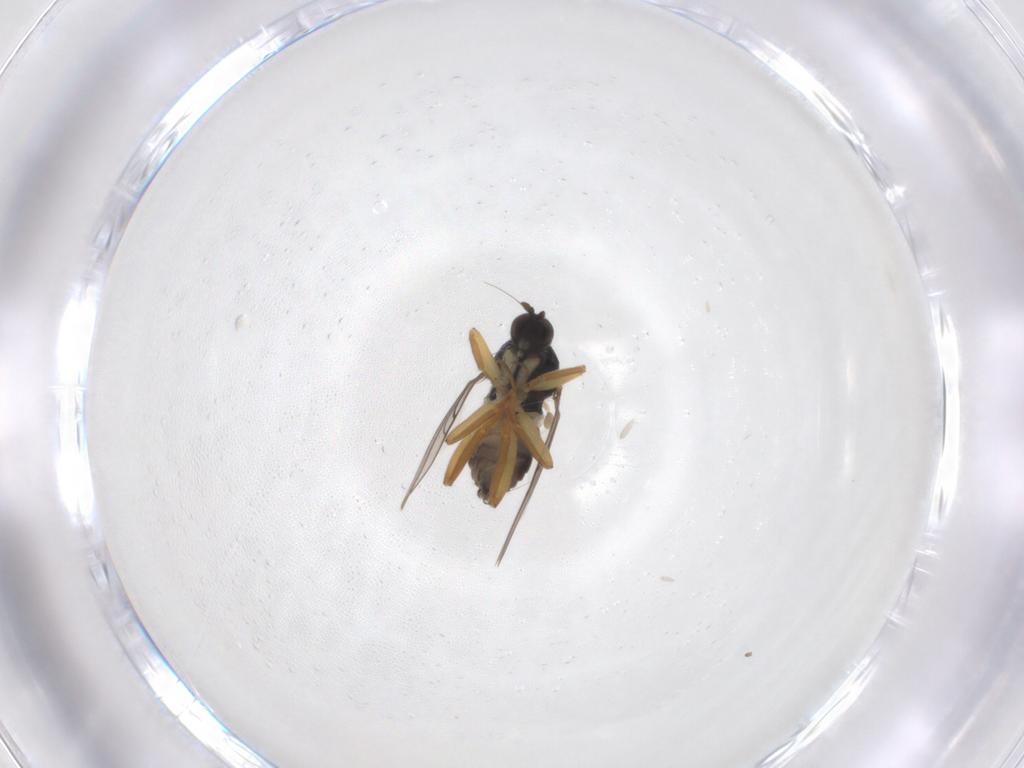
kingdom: Animalia
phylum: Arthropoda
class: Insecta
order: Diptera
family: Hybotidae
